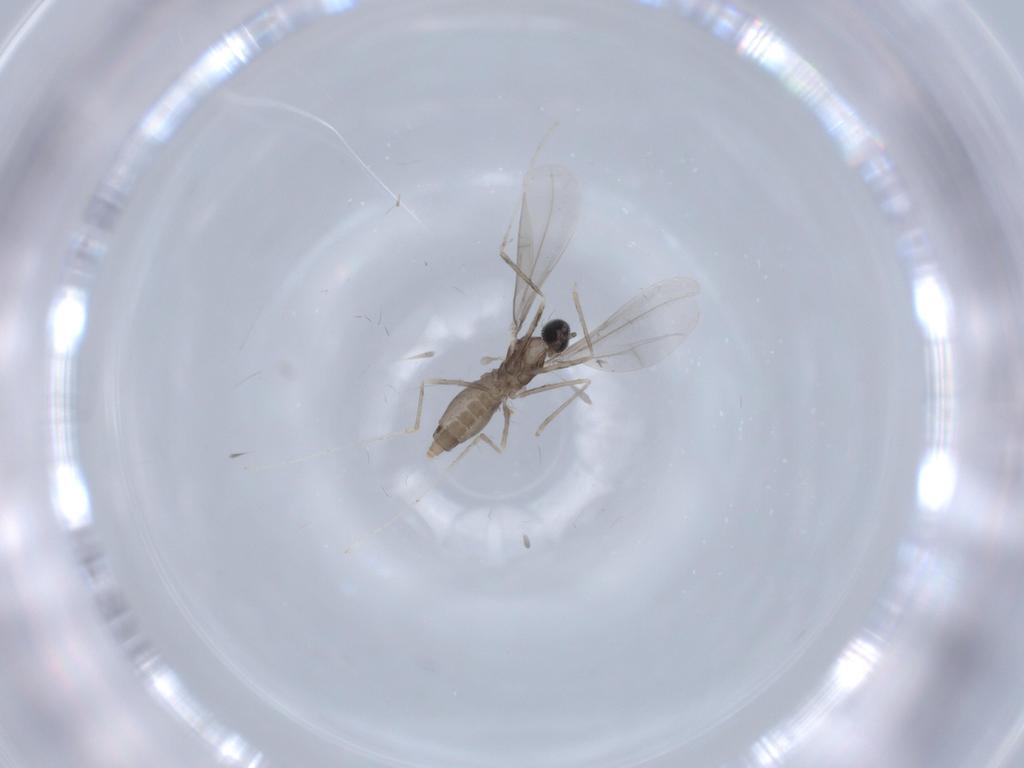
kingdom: Animalia
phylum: Arthropoda
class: Insecta
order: Diptera
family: Cecidomyiidae
